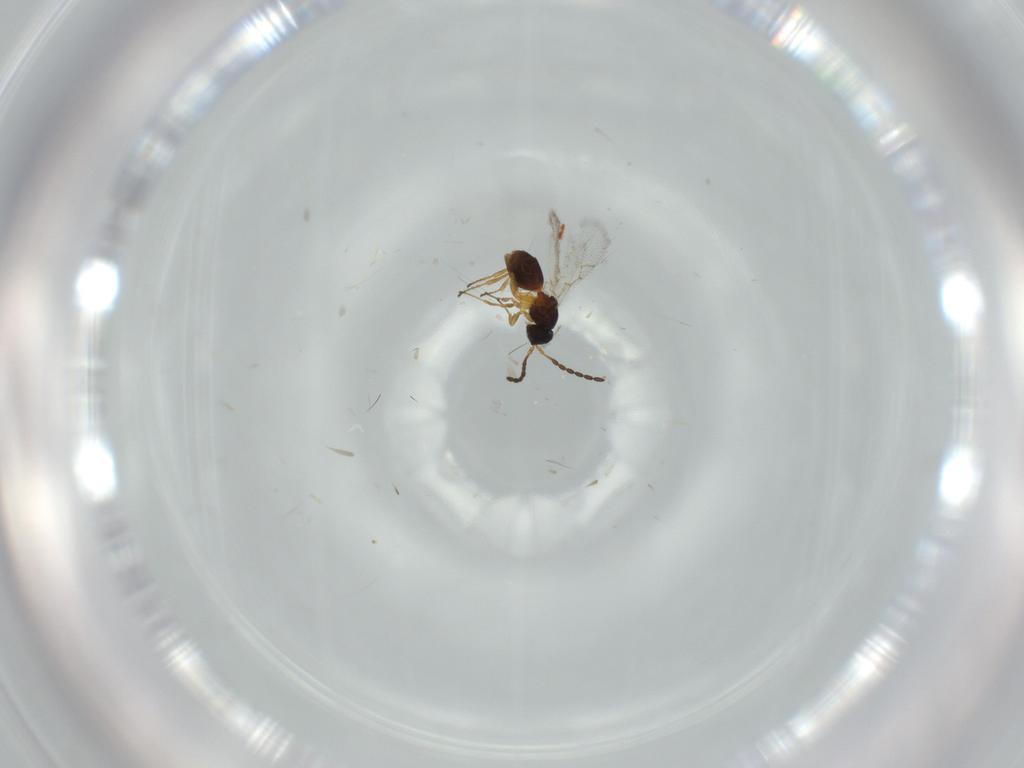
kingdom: Animalia
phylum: Arthropoda
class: Insecta
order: Hymenoptera
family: Figitidae
